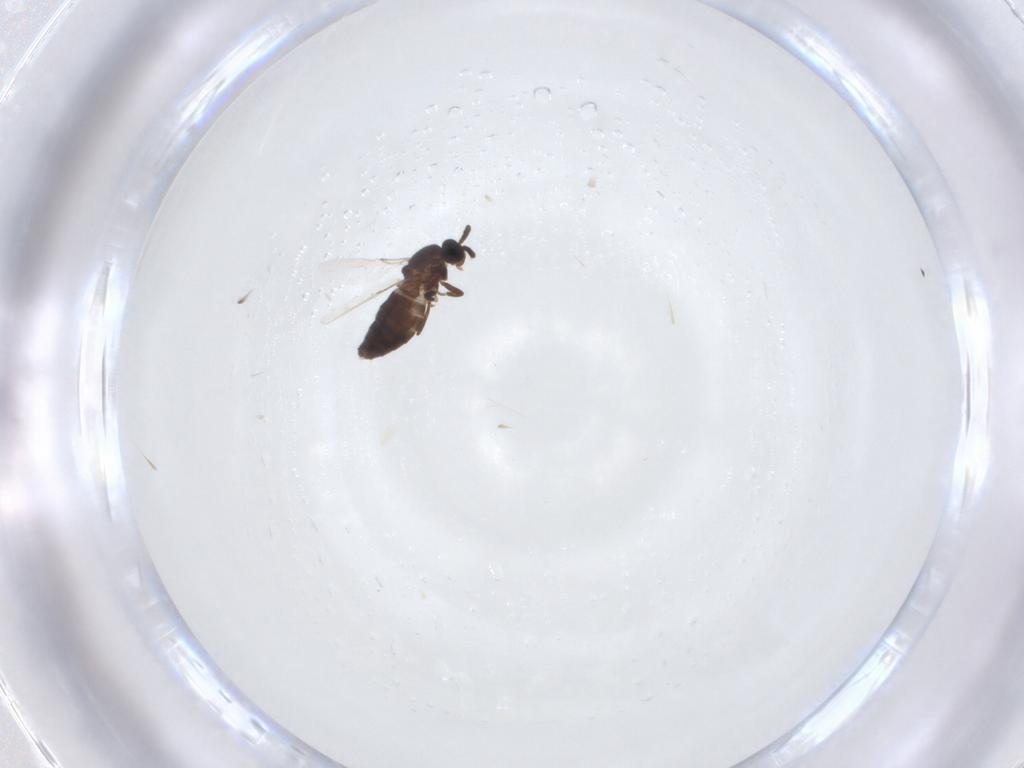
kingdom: Animalia
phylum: Arthropoda
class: Insecta
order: Diptera
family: Scatopsidae
